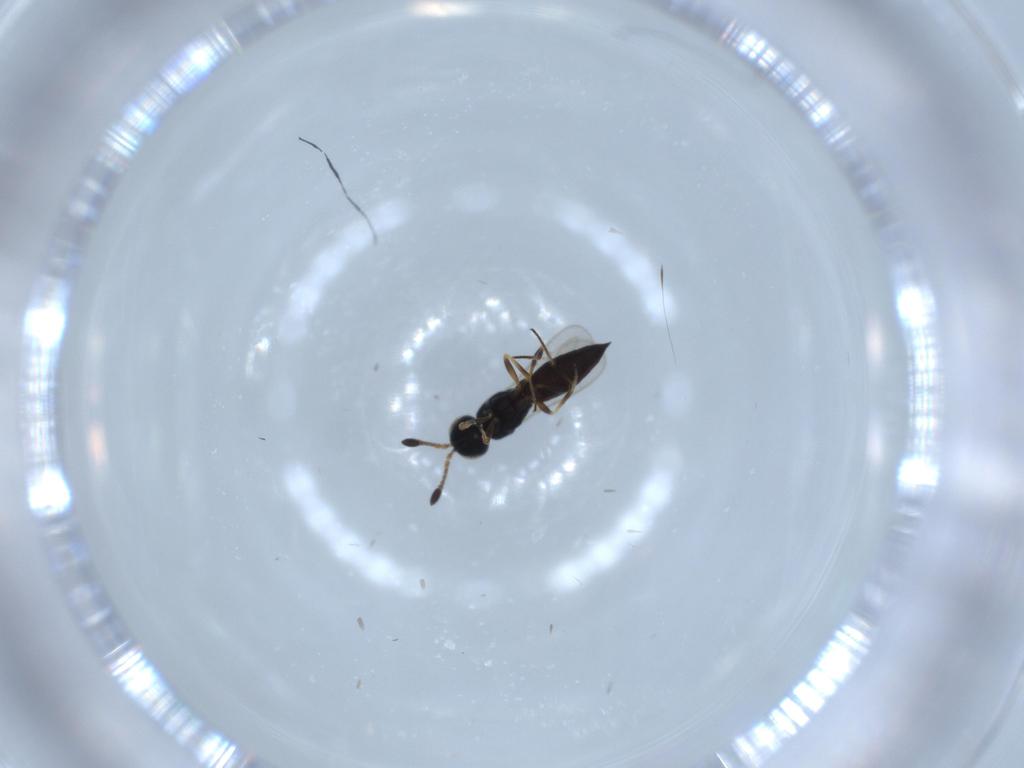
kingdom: Animalia
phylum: Arthropoda
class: Insecta
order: Hymenoptera
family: Scelionidae
